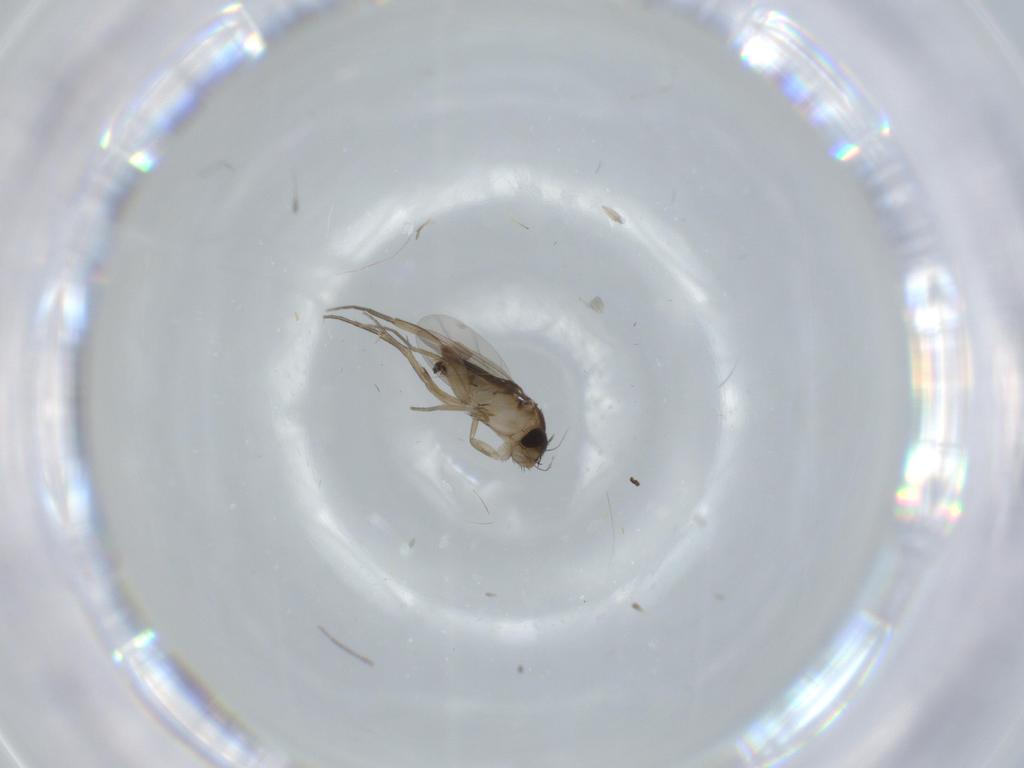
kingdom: Animalia
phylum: Arthropoda
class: Insecta
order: Diptera
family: Phoridae
